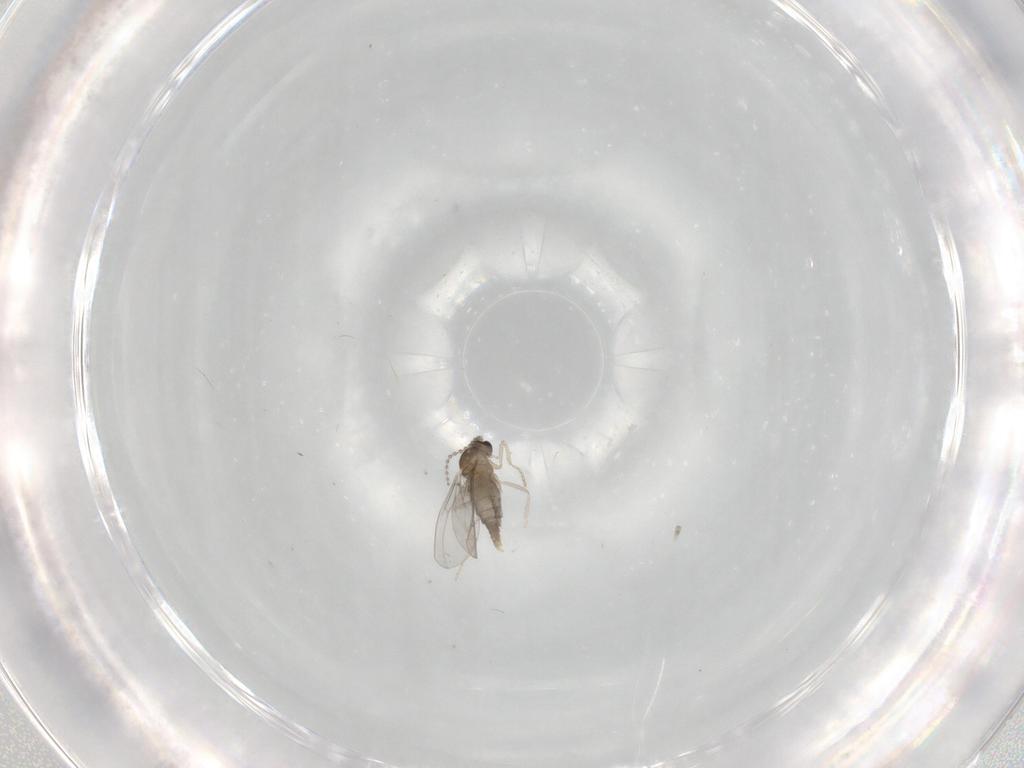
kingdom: Animalia
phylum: Arthropoda
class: Insecta
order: Diptera
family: Cecidomyiidae
